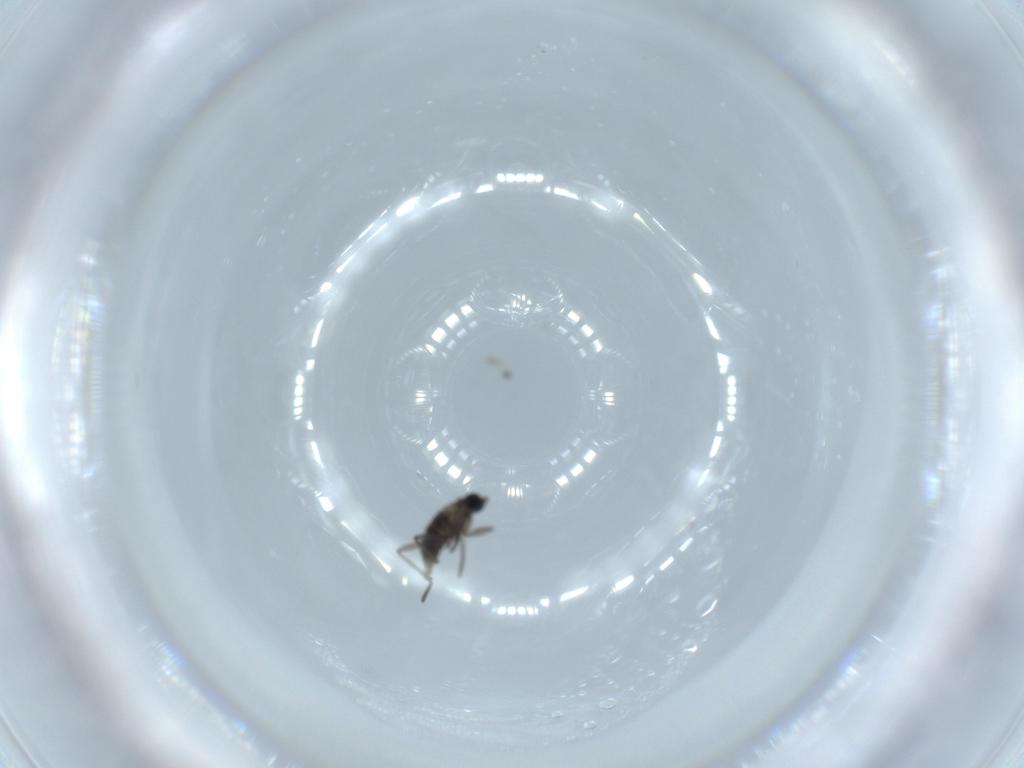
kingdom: Animalia
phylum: Arthropoda
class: Insecta
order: Diptera
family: Sciaridae
